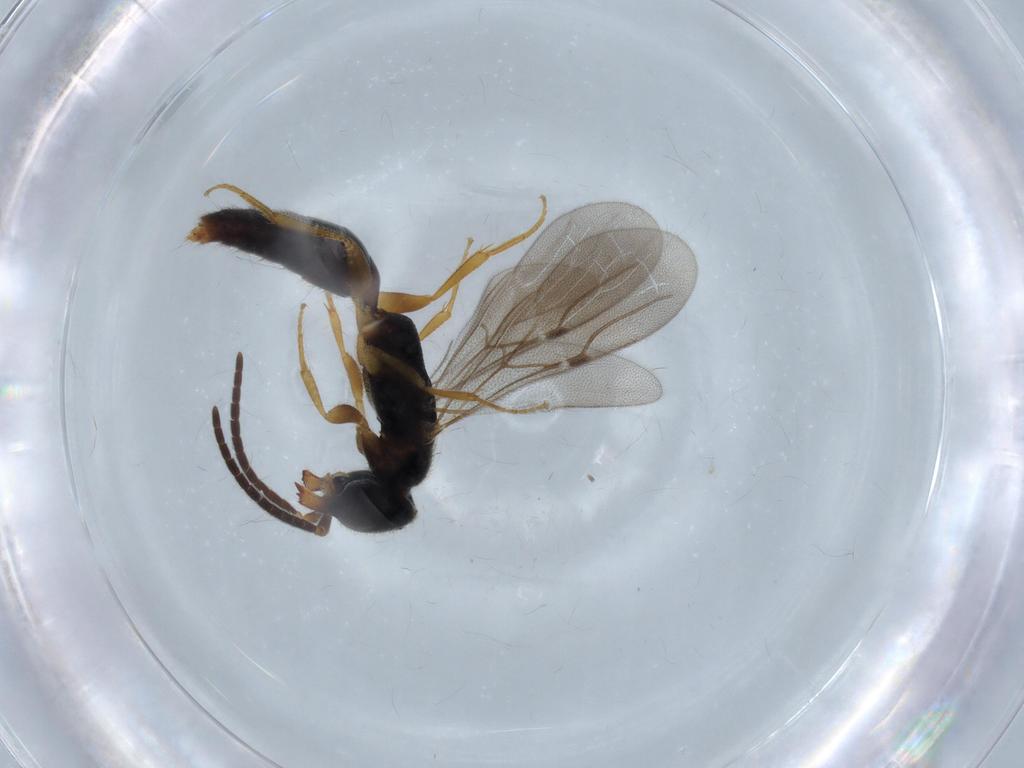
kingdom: Animalia
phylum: Arthropoda
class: Insecta
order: Hymenoptera
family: Bethylidae
